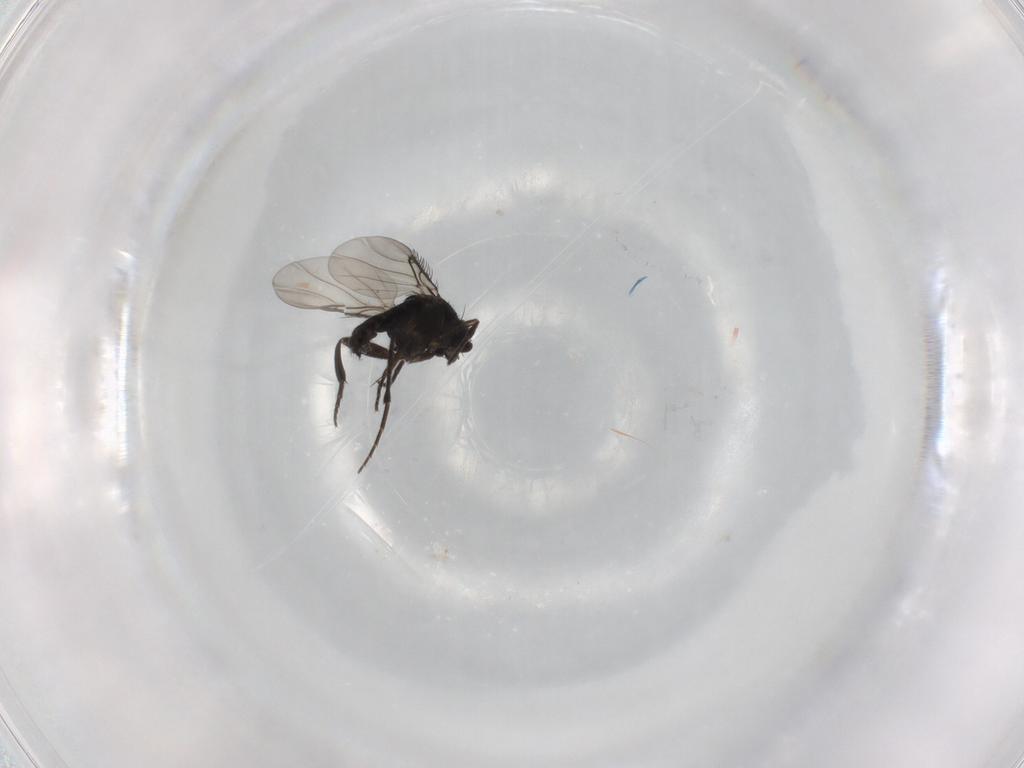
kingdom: Animalia
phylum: Arthropoda
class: Insecta
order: Diptera
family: Phoridae
